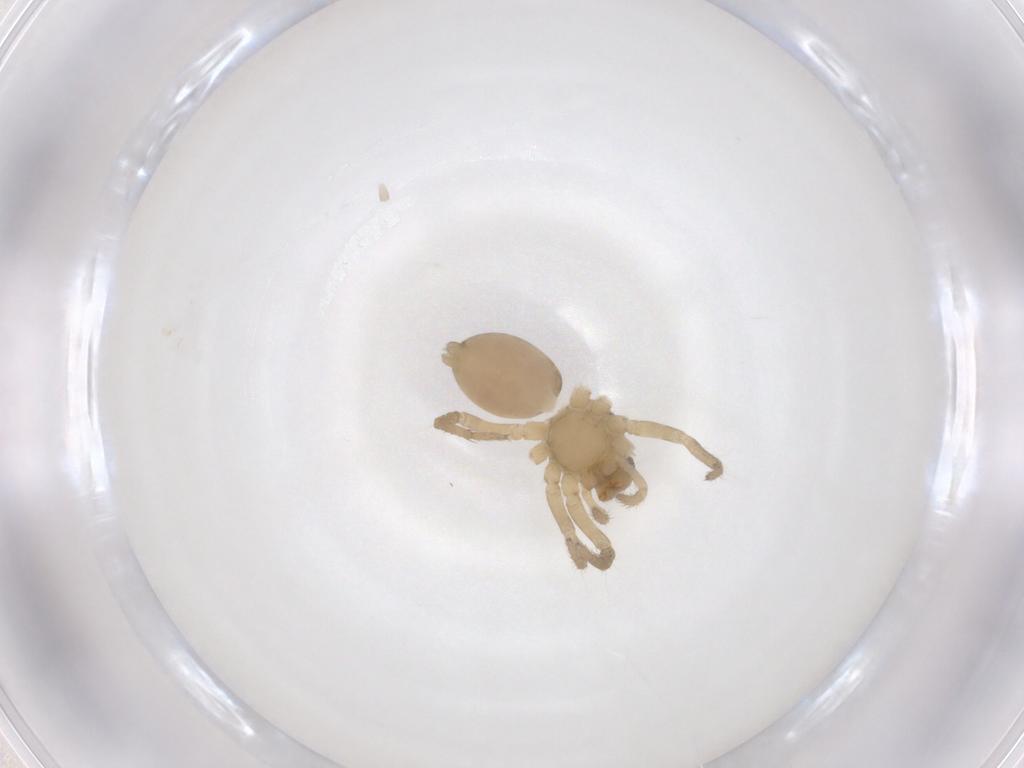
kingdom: Animalia
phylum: Arthropoda
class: Arachnida
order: Araneae
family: Lycosidae
